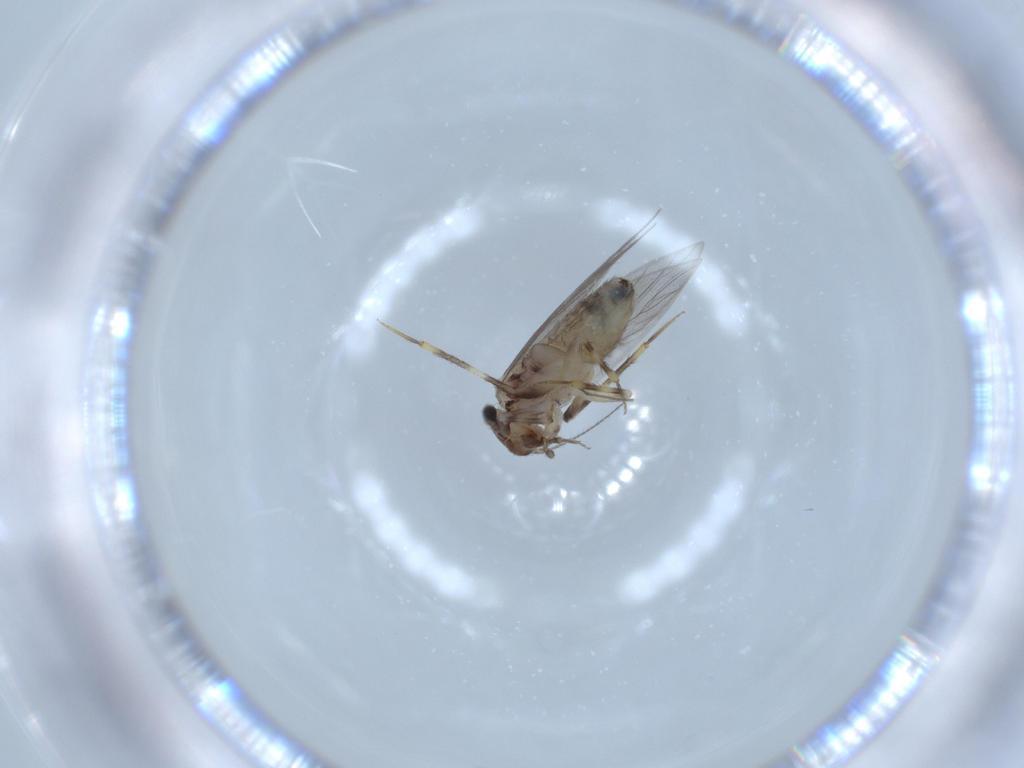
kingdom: Animalia
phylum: Arthropoda
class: Insecta
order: Psocodea
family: Lepidopsocidae
